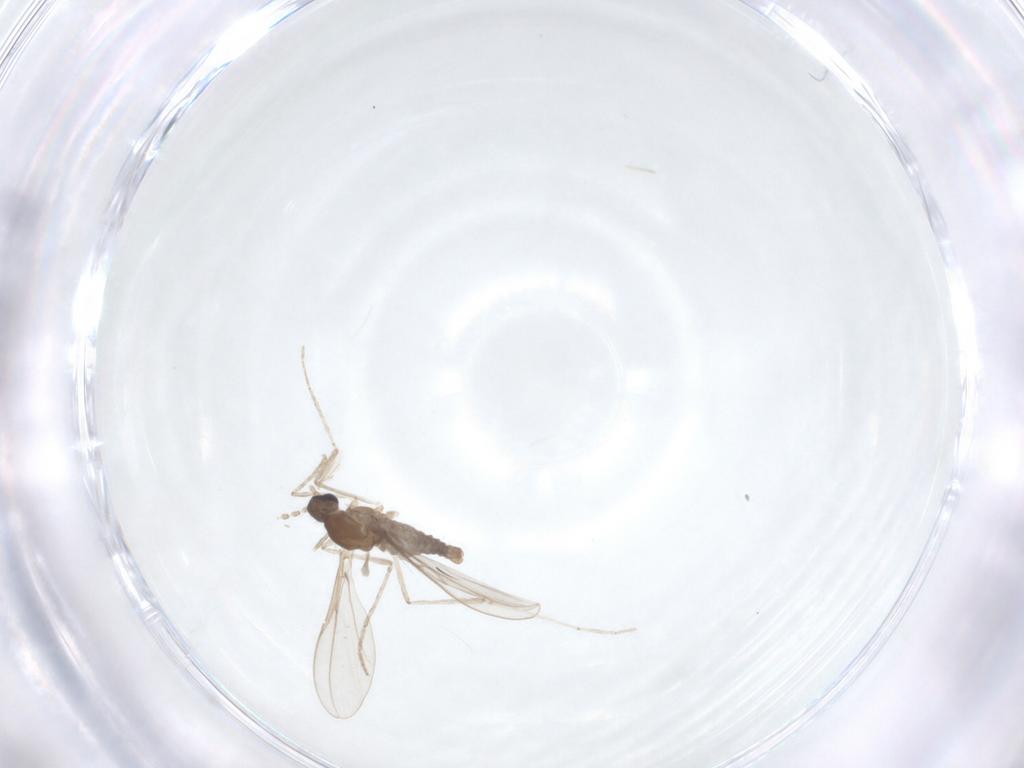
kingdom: Animalia
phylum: Arthropoda
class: Insecta
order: Diptera
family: Cecidomyiidae
